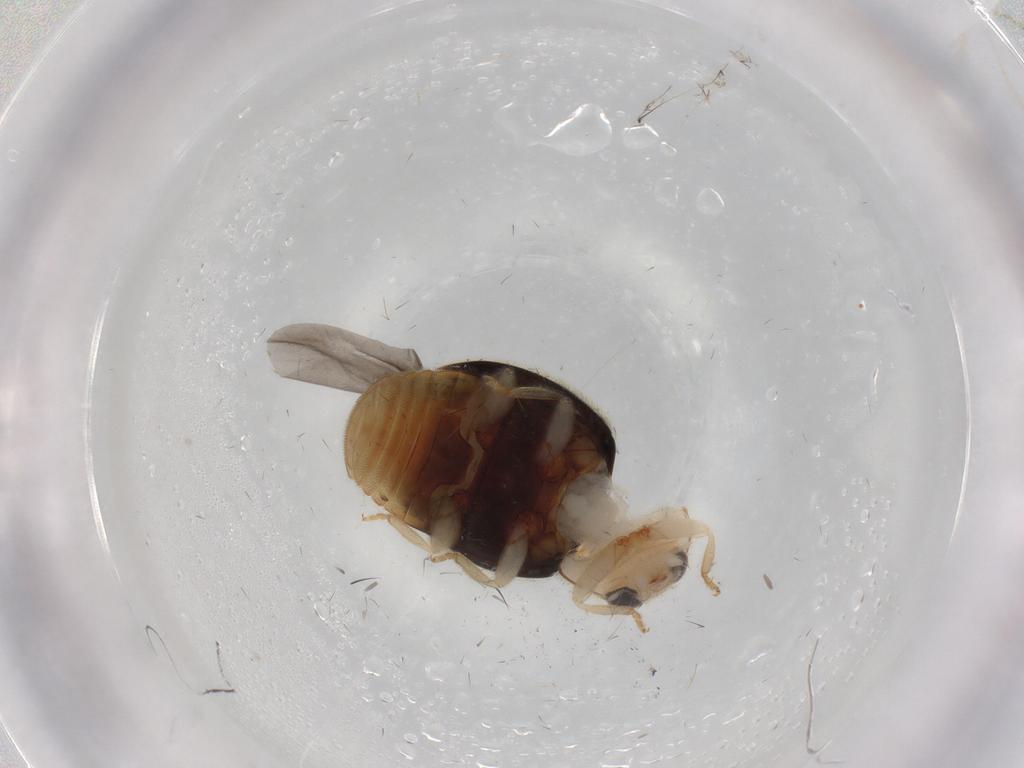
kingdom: Animalia
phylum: Arthropoda
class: Insecta
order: Coleoptera
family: Coccinellidae
